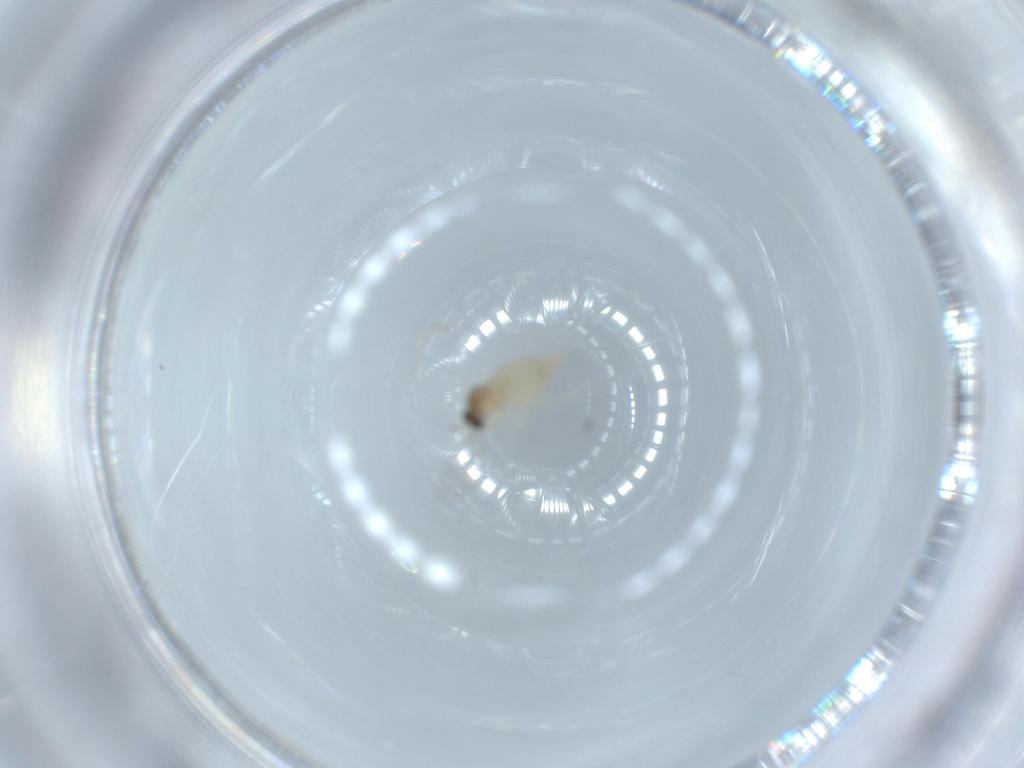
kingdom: Animalia
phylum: Arthropoda
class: Insecta
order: Diptera
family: Cecidomyiidae
